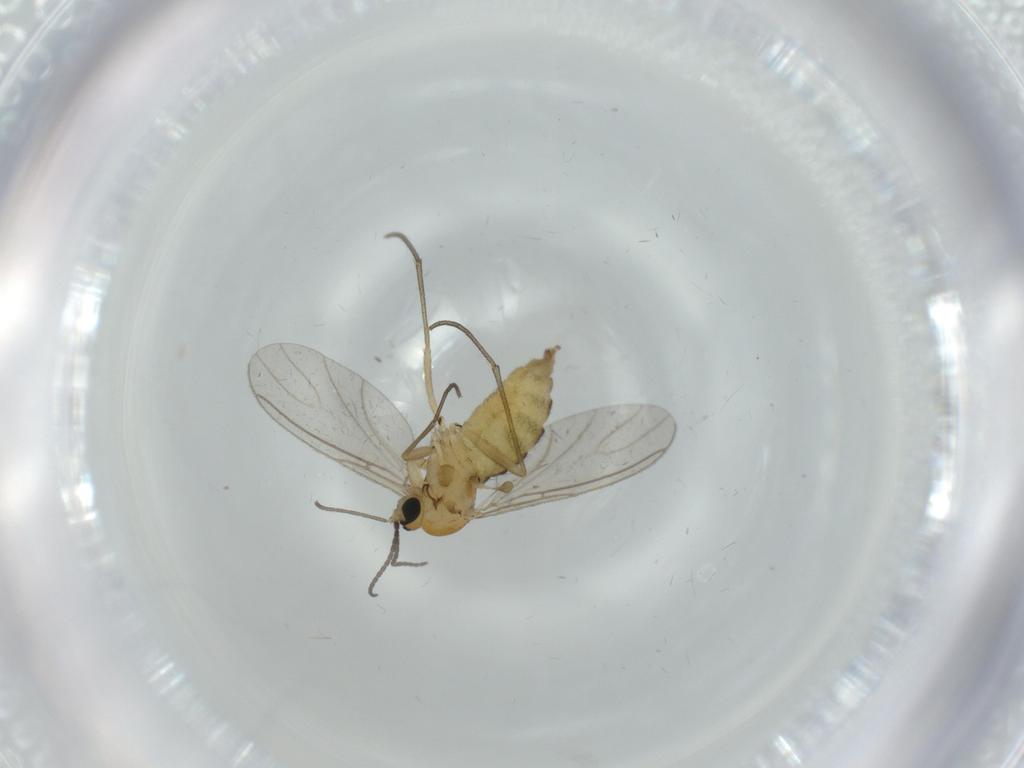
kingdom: Animalia
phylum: Arthropoda
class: Insecta
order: Diptera
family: Sciaridae
